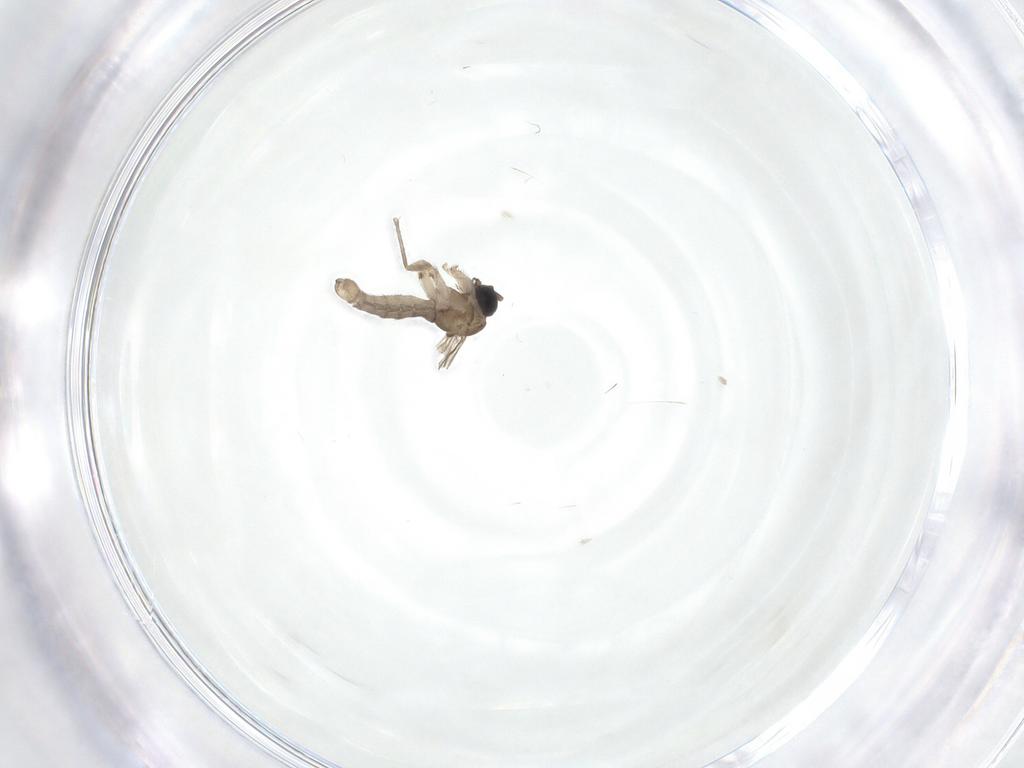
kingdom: Animalia
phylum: Arthropoda
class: Insecta
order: Diptera
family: Sciaridae
